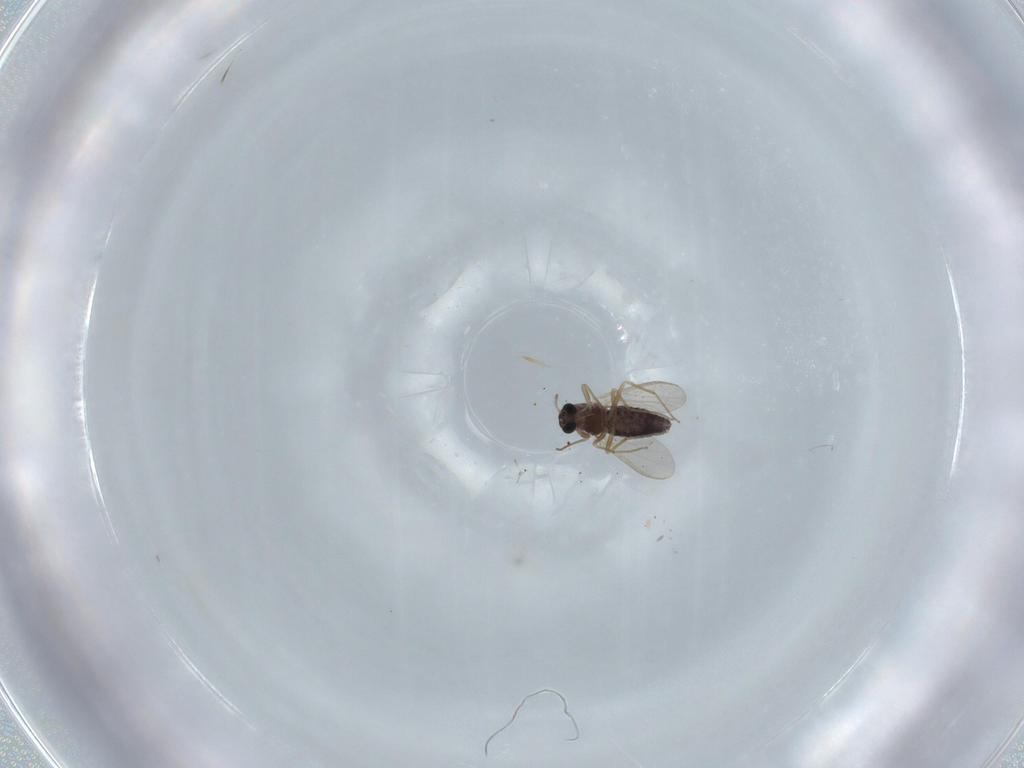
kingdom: Animalia
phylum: Arthropoda
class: Insecta
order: Diptera
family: Chironomidae
